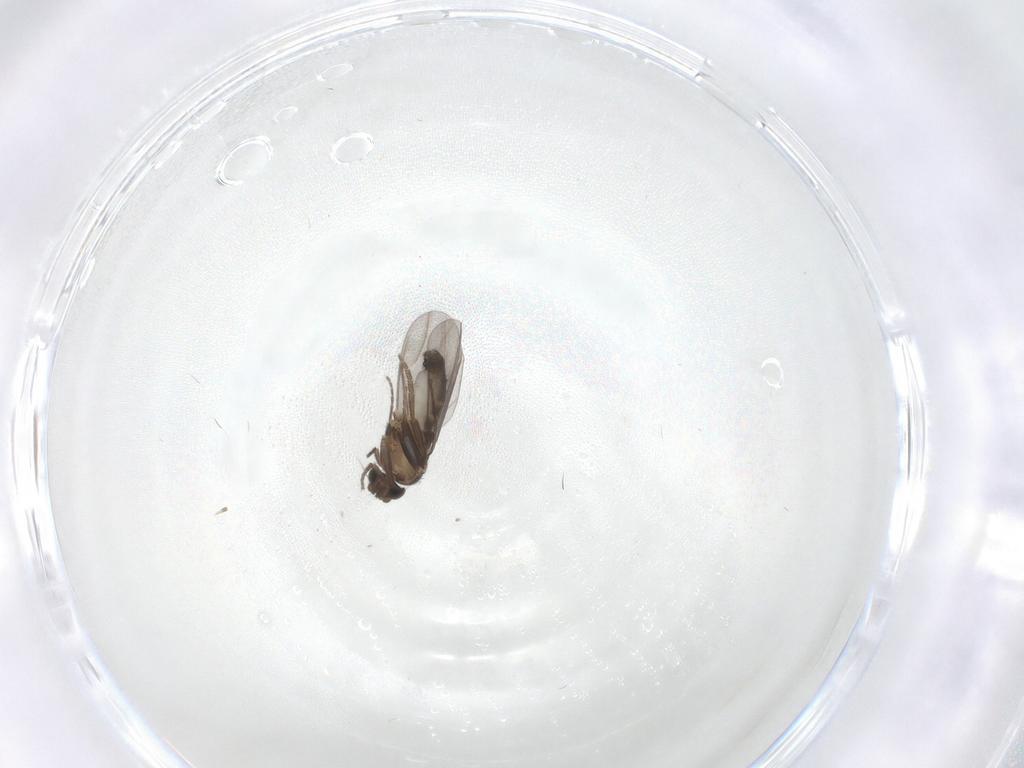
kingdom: Animalia
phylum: Arthropoda
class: Insecta
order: Diptera
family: Phoridae
